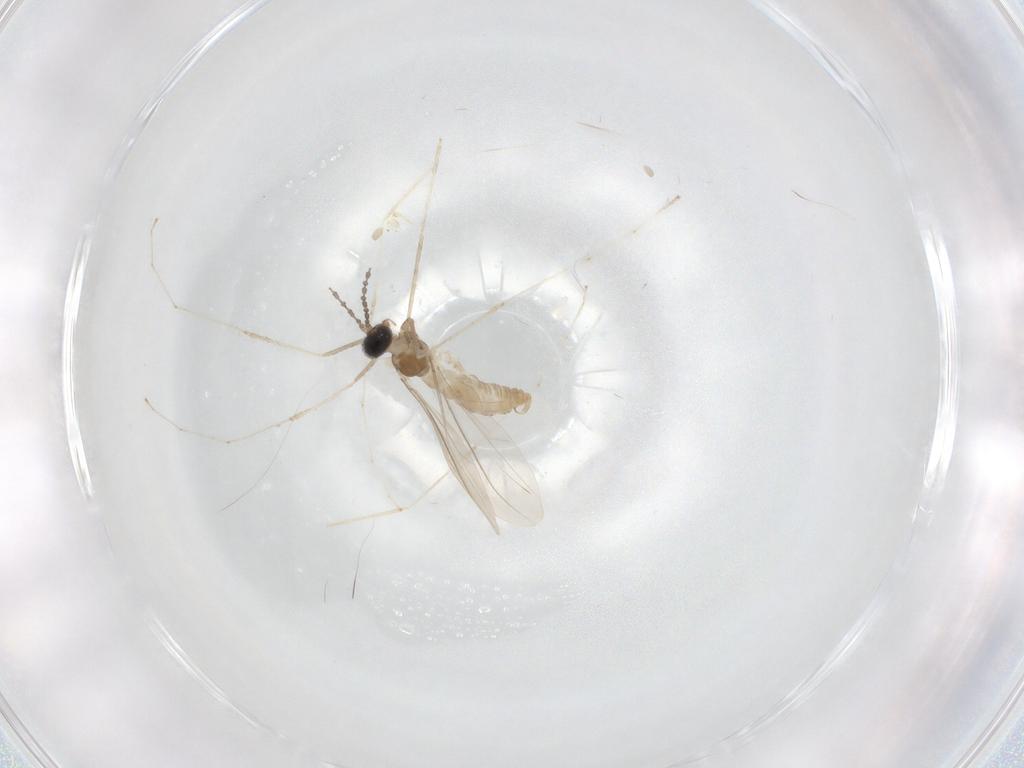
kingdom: Animalia
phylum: Arthropoda
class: Insecta
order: Diptera
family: Cecidomyiidae
